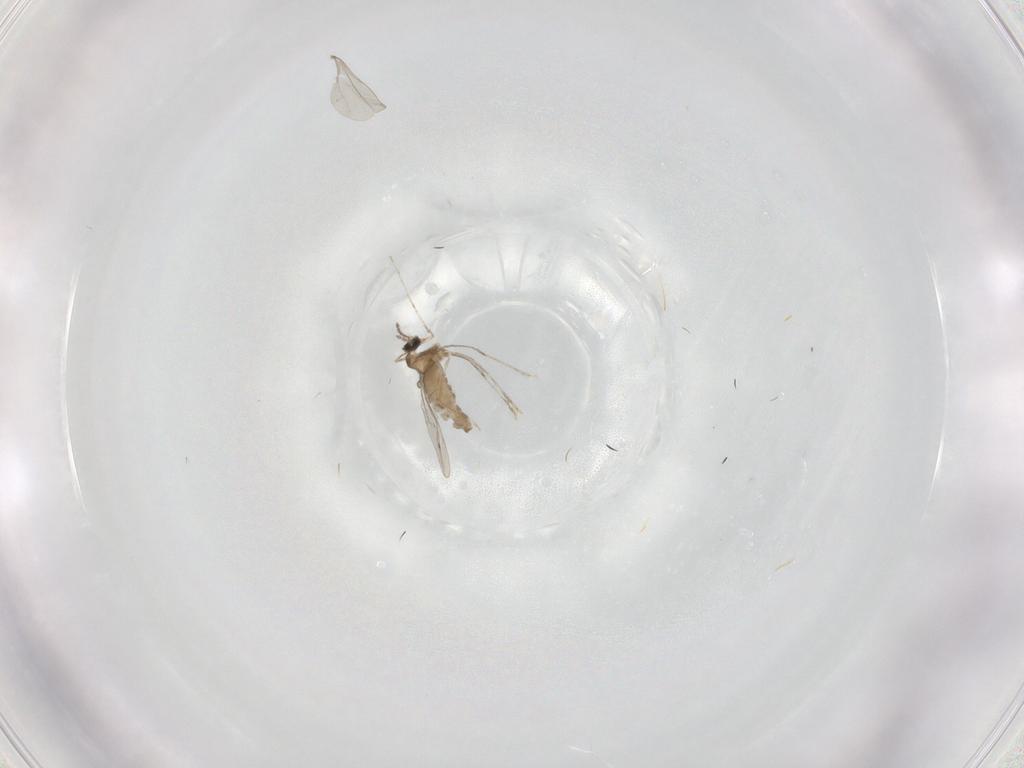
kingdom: Animalia
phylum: Arthropoda
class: Insecta
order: Diptera
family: Cecidomyiidae
